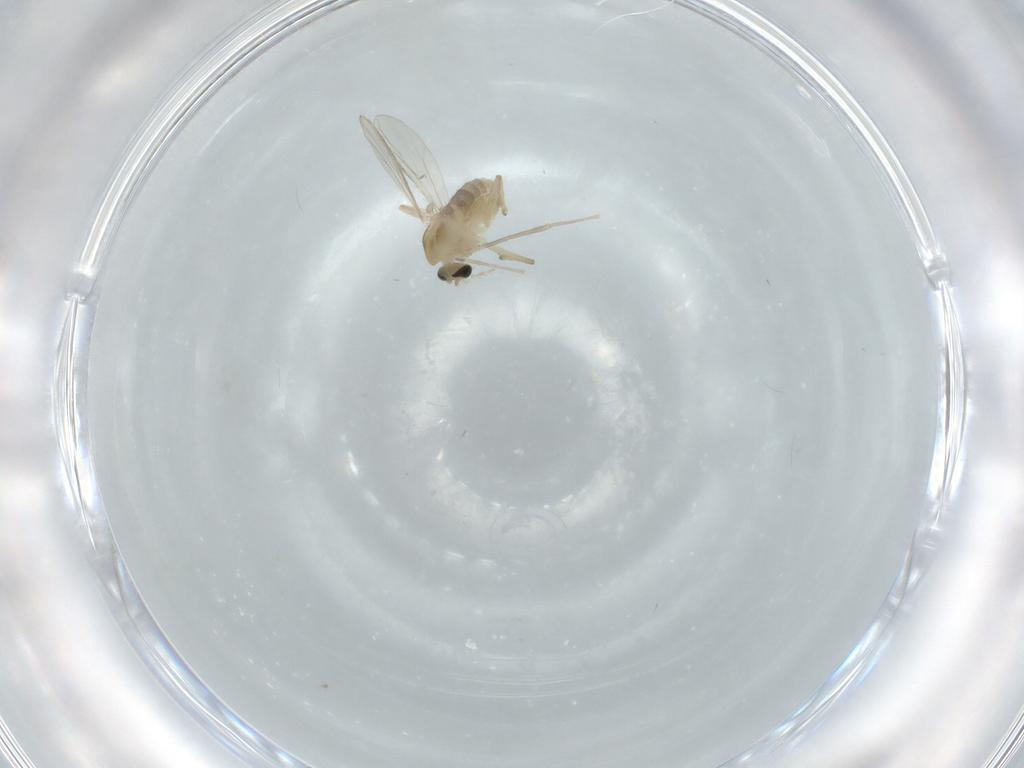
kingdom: Animalia
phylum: Arthropoda
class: Insecta
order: Diptera
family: Chironomidae
